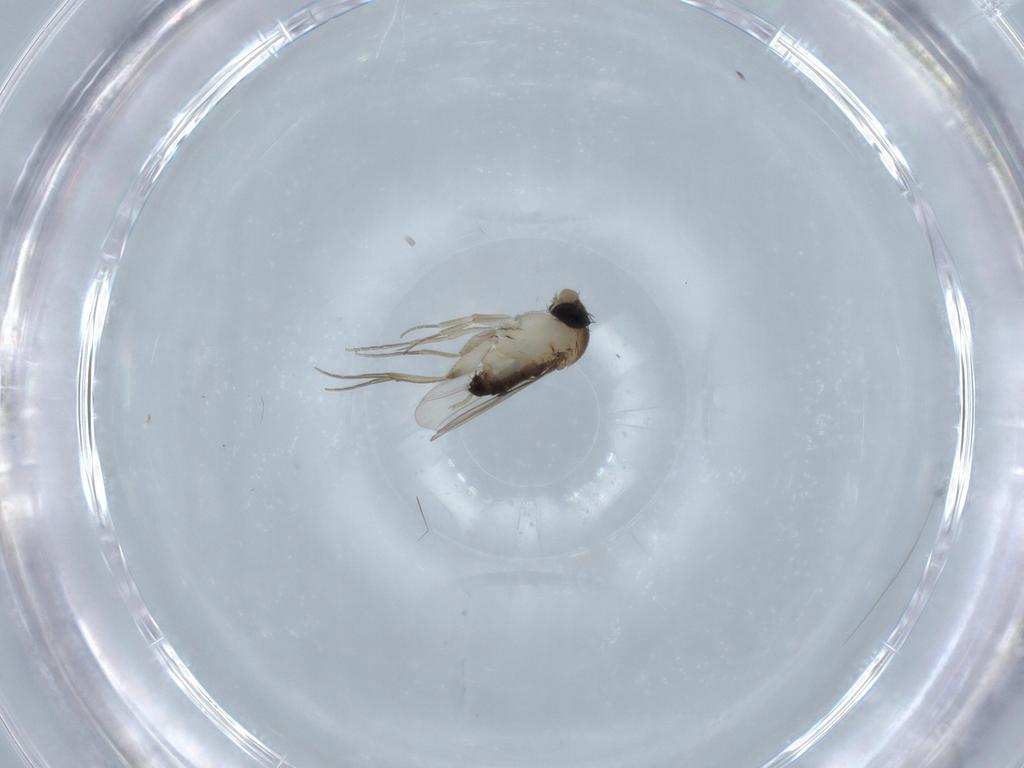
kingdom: Animalia
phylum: Arthropoda
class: Insecta
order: Diptera
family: Phoridae
